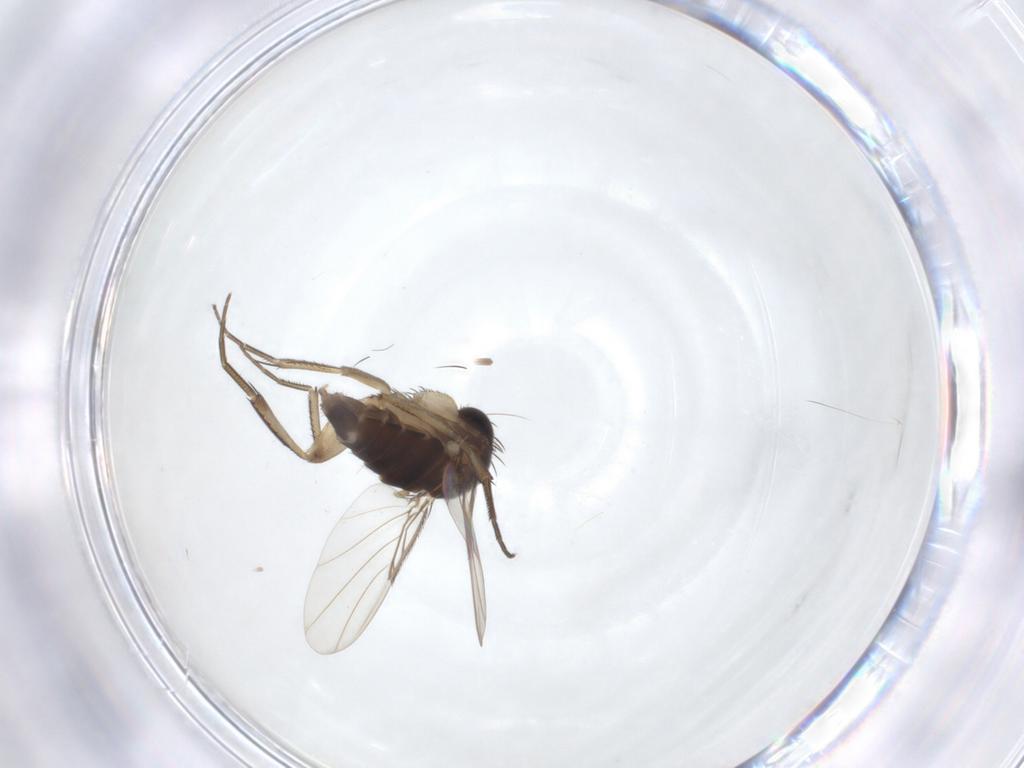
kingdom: Animalia
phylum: Arthropoda
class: Insecta
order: Diptera
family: Phoridae
